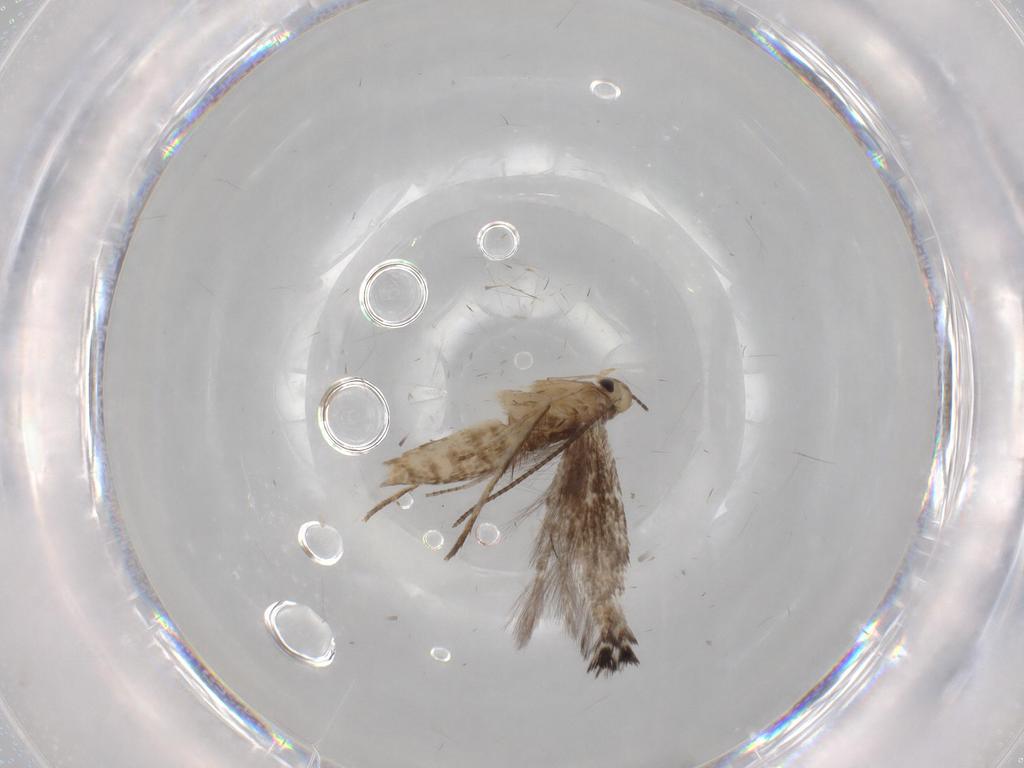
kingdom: Animalia
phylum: Arthropoda
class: Insecta
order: Lepidoptera
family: Gracillariidae
